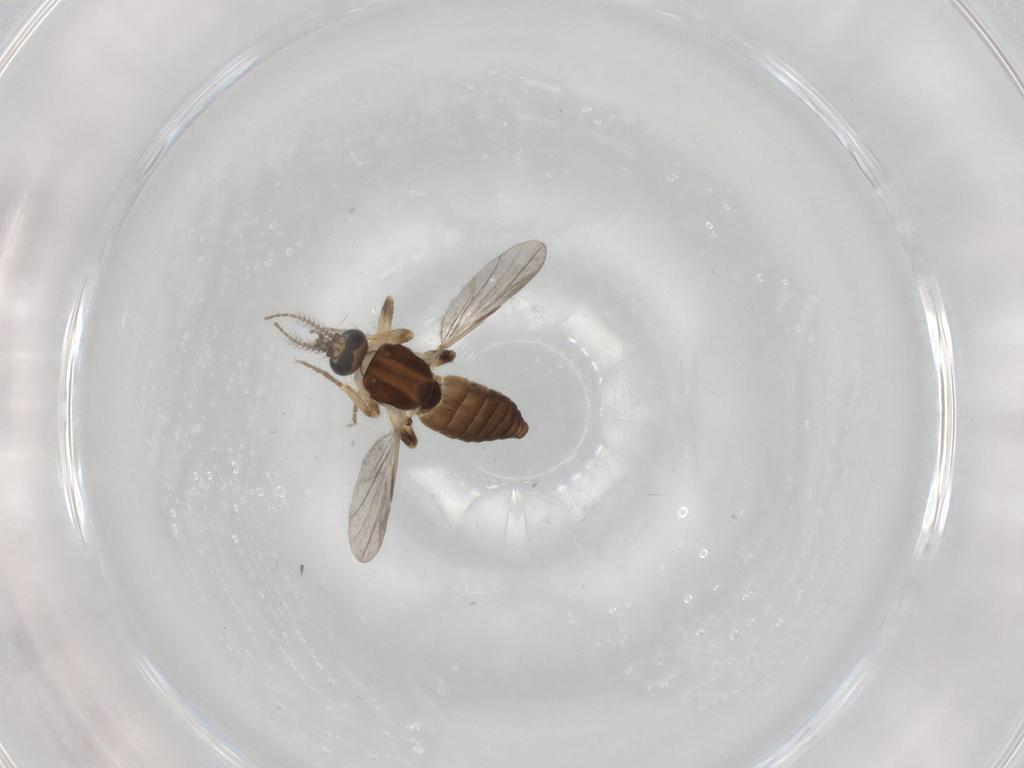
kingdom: Animalia
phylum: Arthropoda
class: Insecta
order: Diptera
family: Ceratopogonidae
